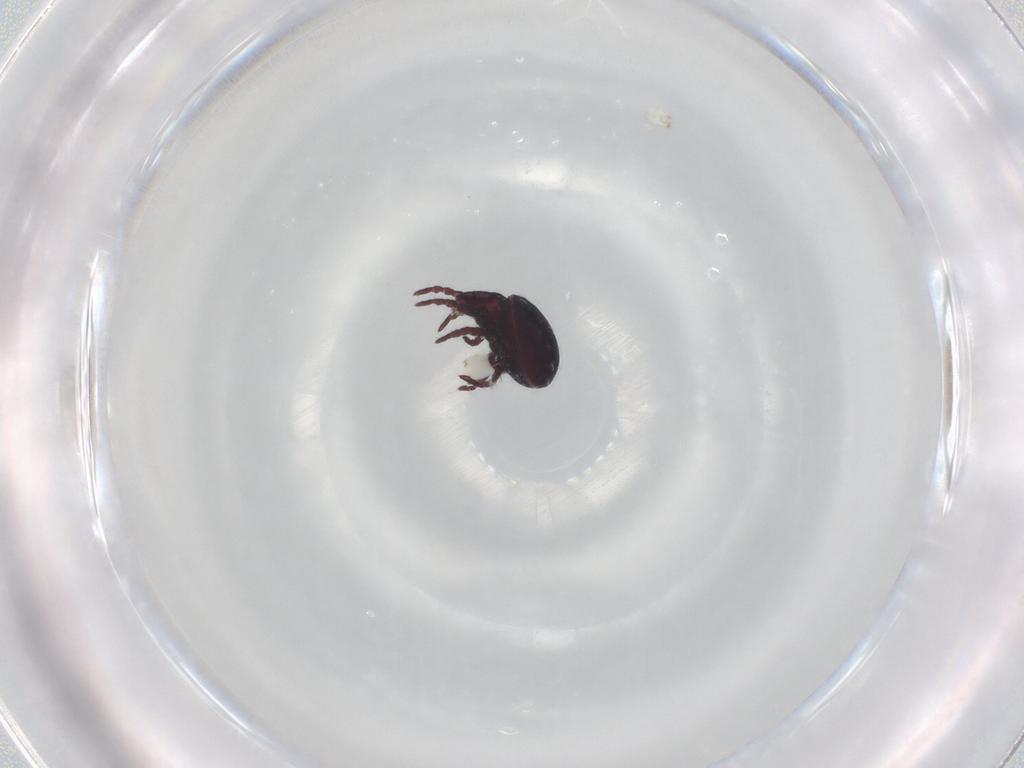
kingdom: Animalia
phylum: Arthropoda
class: Arachnida
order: Sarcoptiformes
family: Hermanniidae
